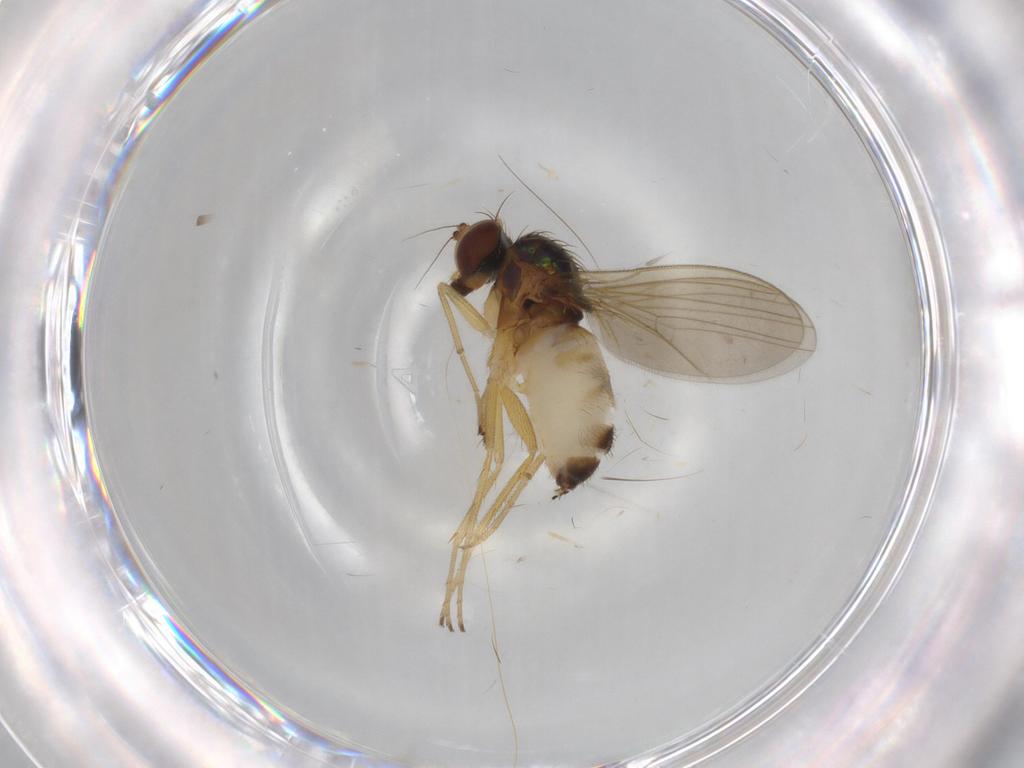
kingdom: Animalia
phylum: Arthropoda
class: Insecta
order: Diptera
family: Dolichopodidae
